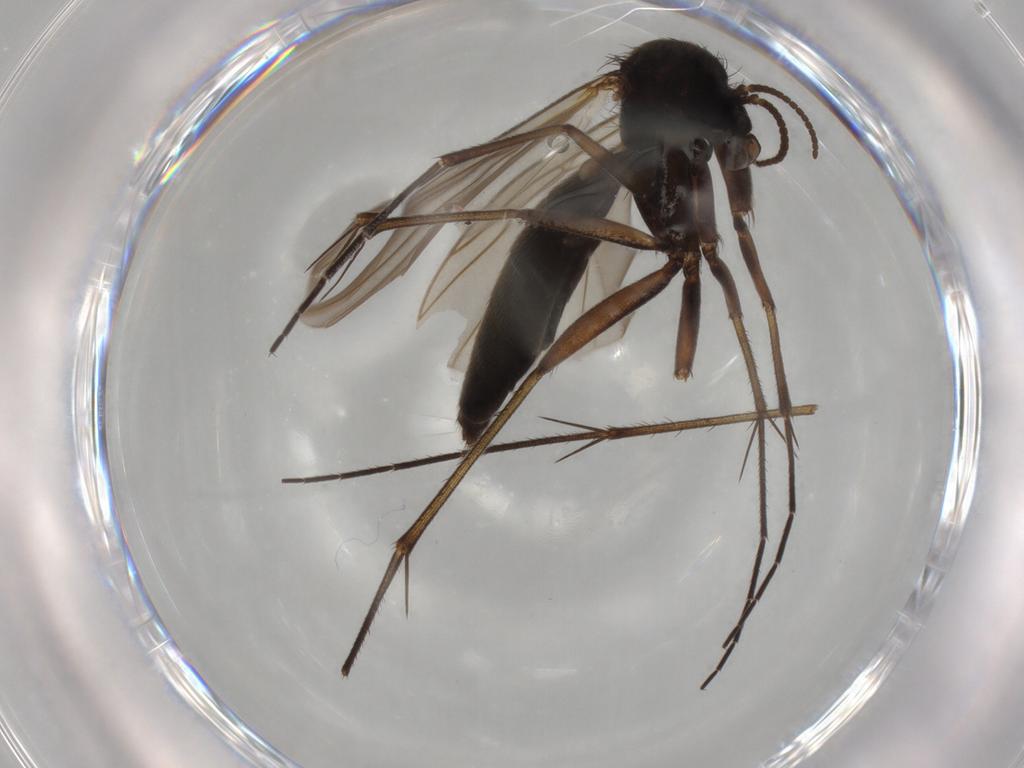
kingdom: Animalia
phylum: Arthropoda
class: Insecta
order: Diptera
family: Mycetophilidae
